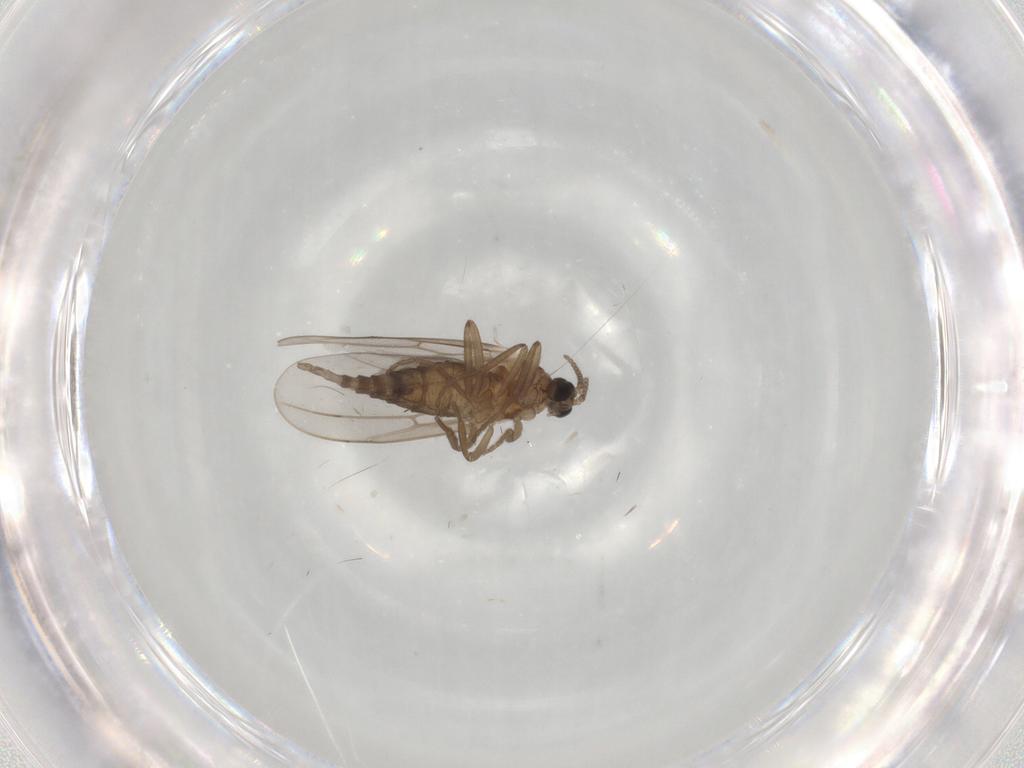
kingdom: Animalia
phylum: Arthropoda
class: Insecta
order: Diptera
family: Cecidomyiidae
